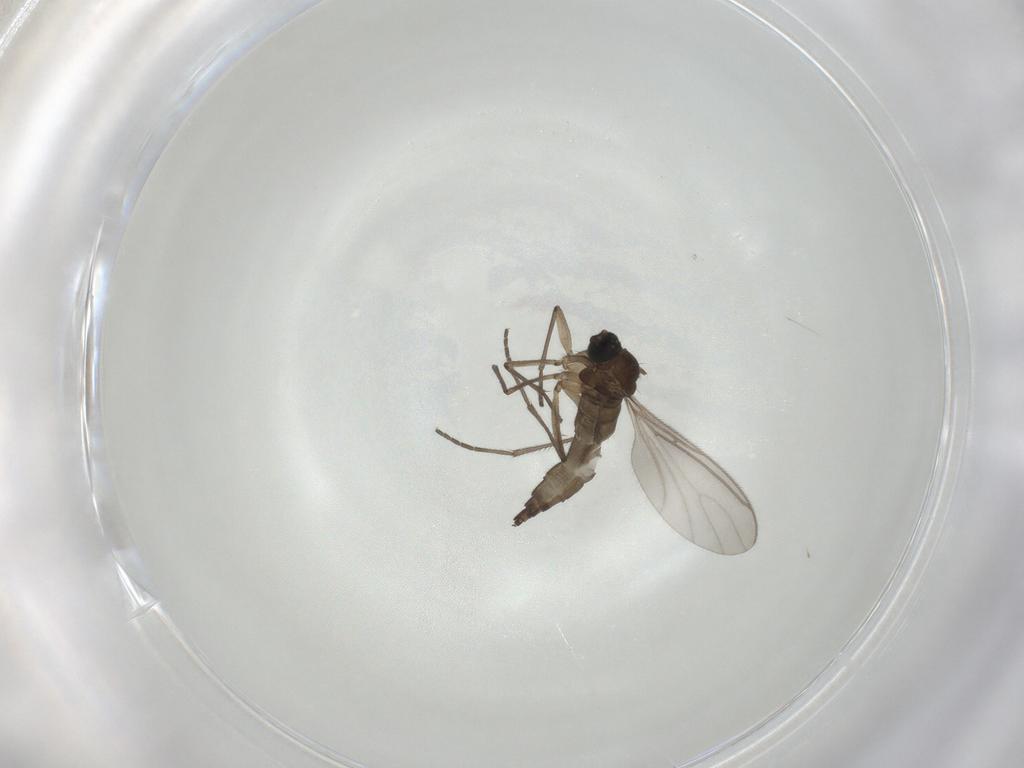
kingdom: Animalia
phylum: Arthropoda
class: Insecta
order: Diptera
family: Sciaridae
